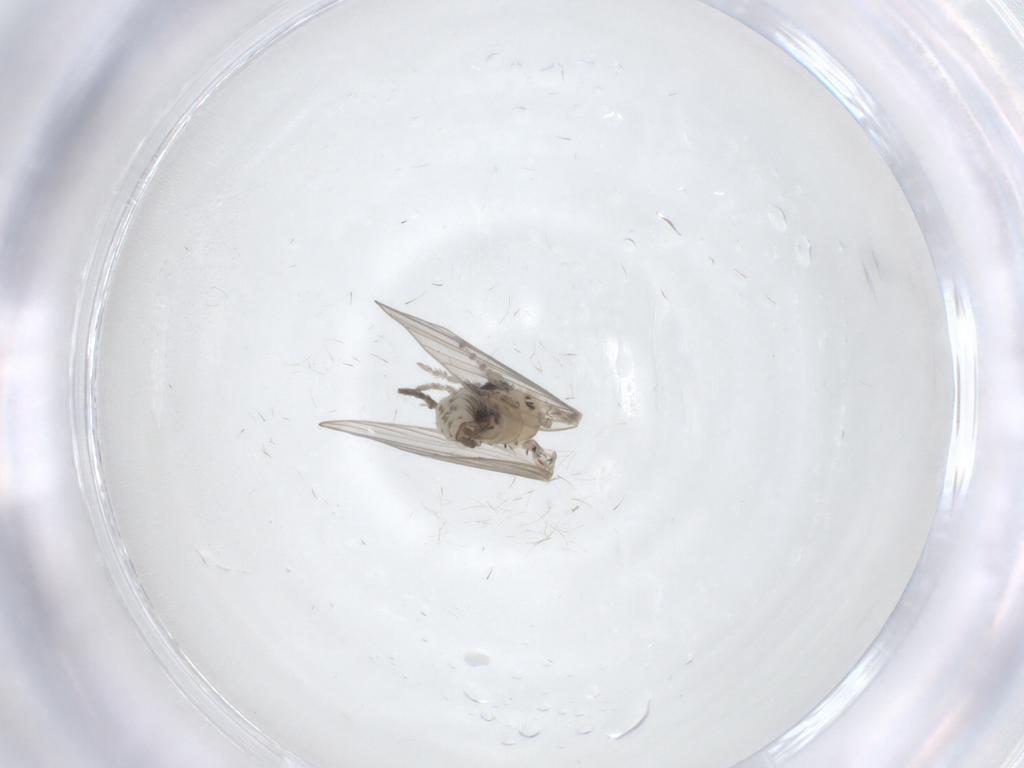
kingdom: Animalia
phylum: Arthropoda
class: Insecta
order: Diptera
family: Psychodidae
